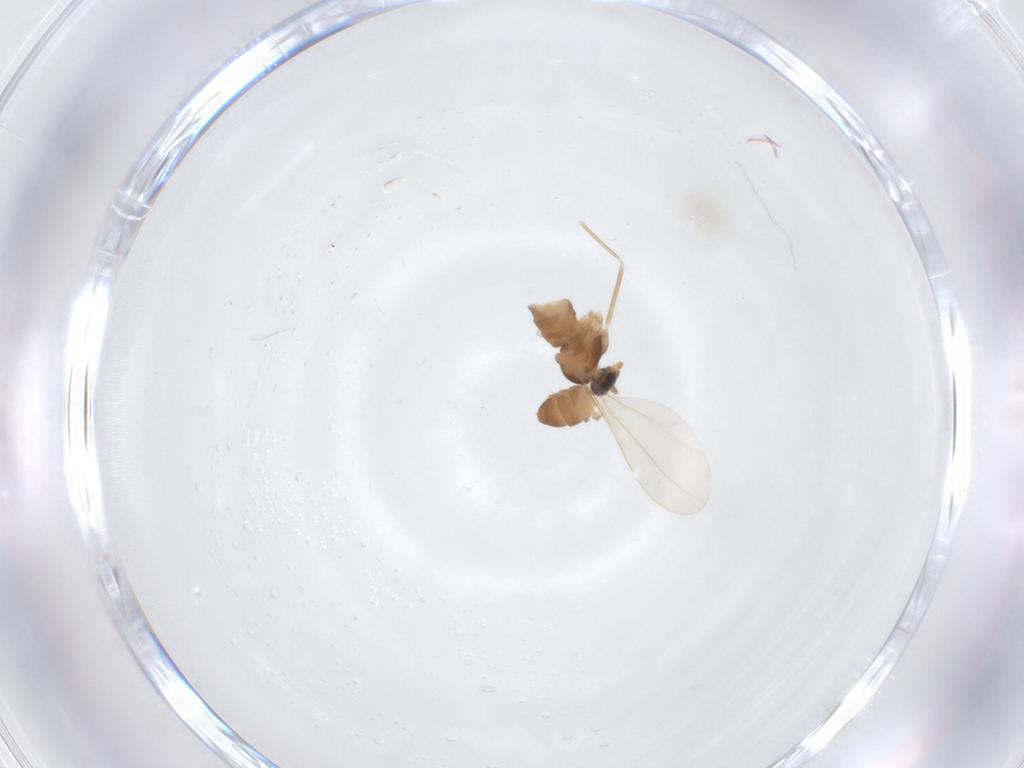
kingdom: Animalia
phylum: Arthropoda
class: Insecta
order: Diptera
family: Cecidomyiidae
